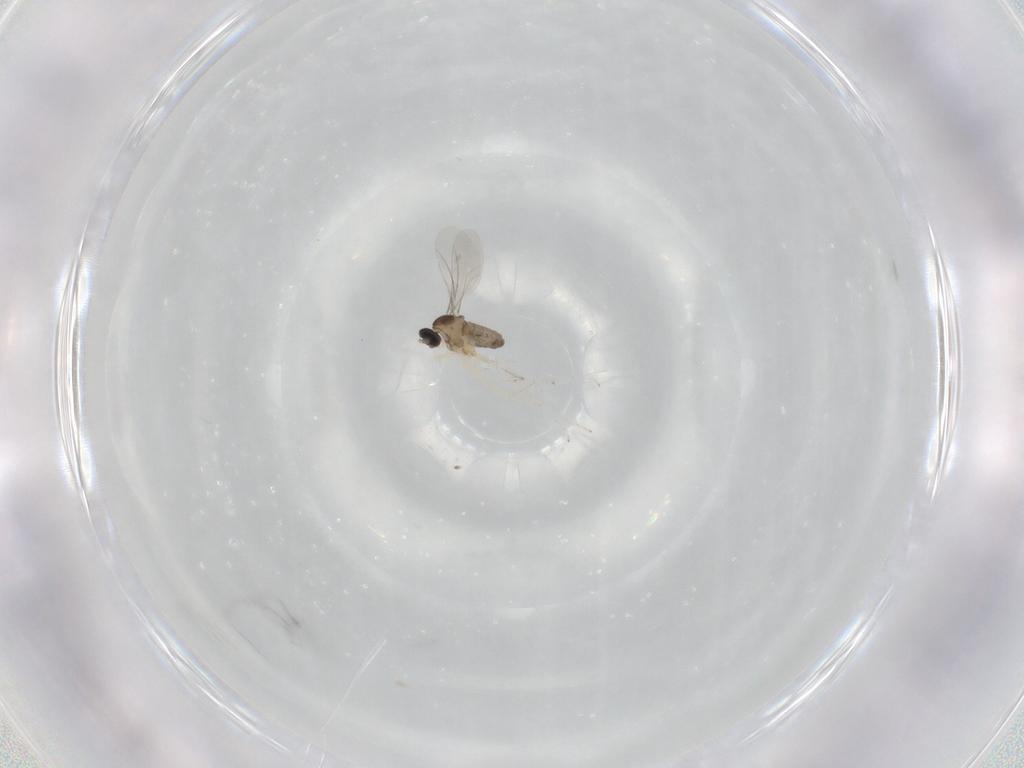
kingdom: Animalia
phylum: Arthropoda
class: Insecta
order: Diptera
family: Cecidomyiidae
